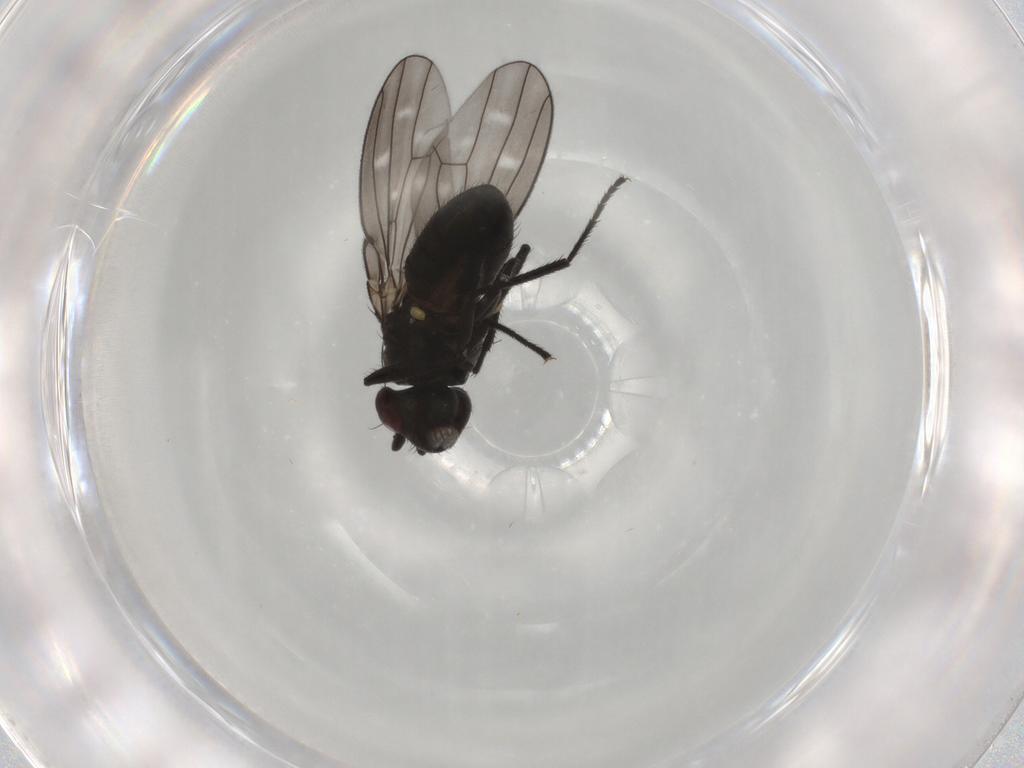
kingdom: Animalia
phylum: Arthropoda
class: Insecta
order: Diptera
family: Ephydridae
